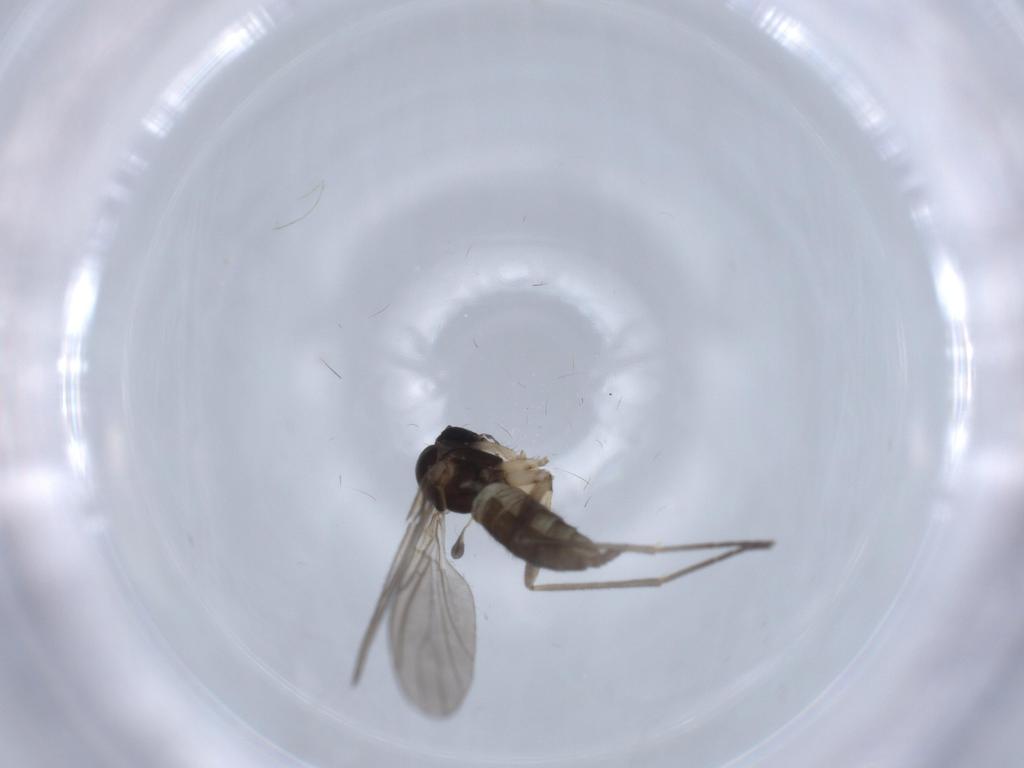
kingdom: Animalia
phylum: Arthropoda
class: Insecta
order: Diptera
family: Sciaridae
